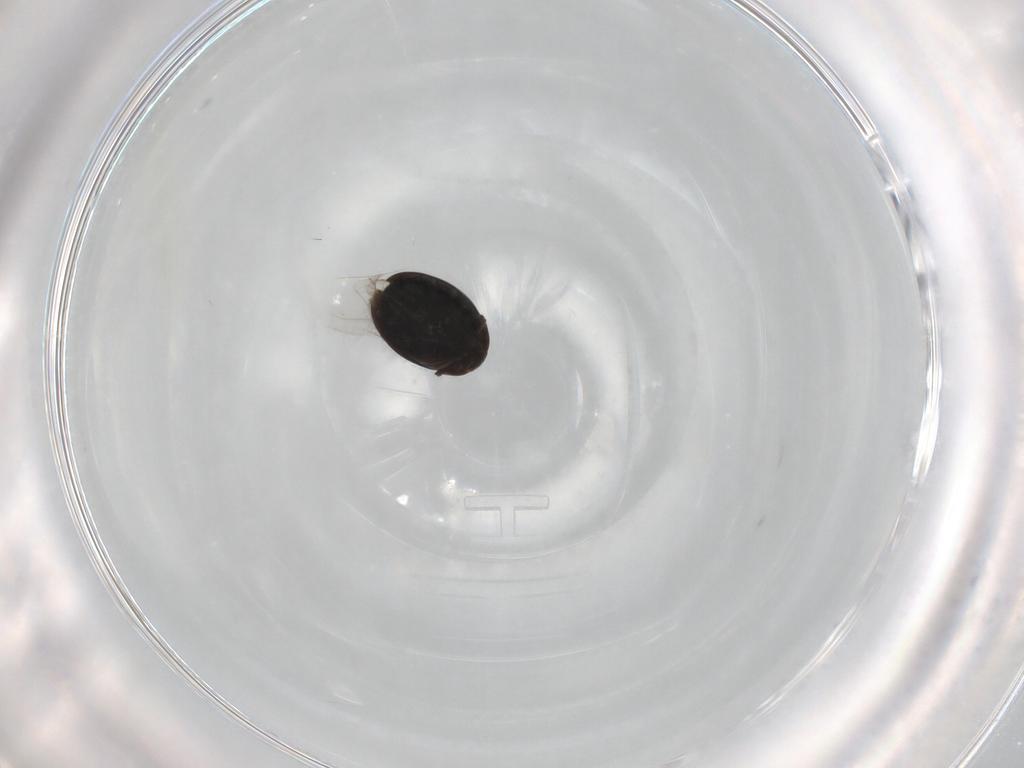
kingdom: Animalia
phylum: Arthropoda
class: Insecta
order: Coleoptera
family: Corylophidae
